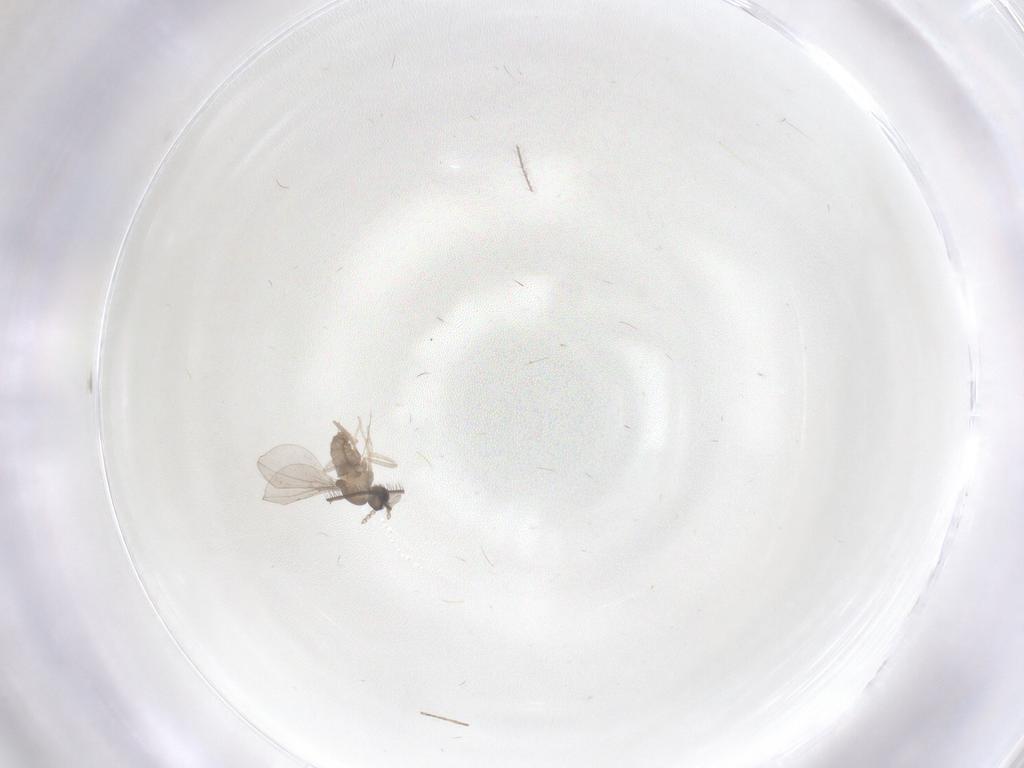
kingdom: Animalia
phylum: Arthropoda
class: Insecta
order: Diptera
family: Cecidomyiidae
